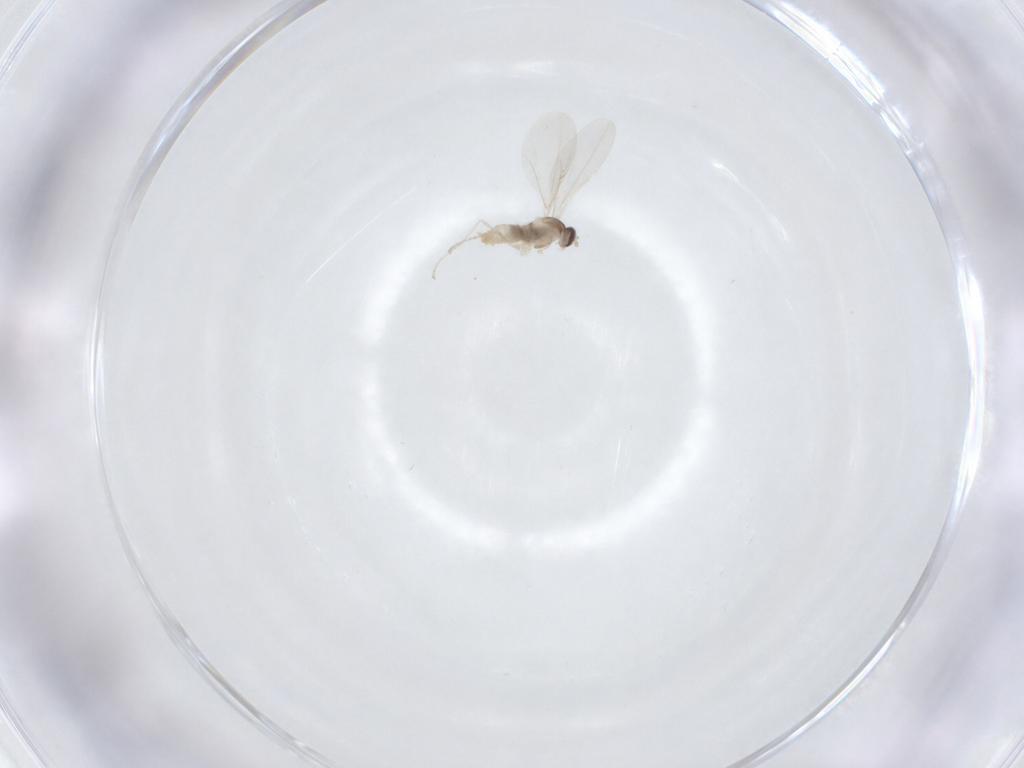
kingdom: Animalia
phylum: Arthropoda
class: Insecta
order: Diptera
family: Cecidomyiidae
